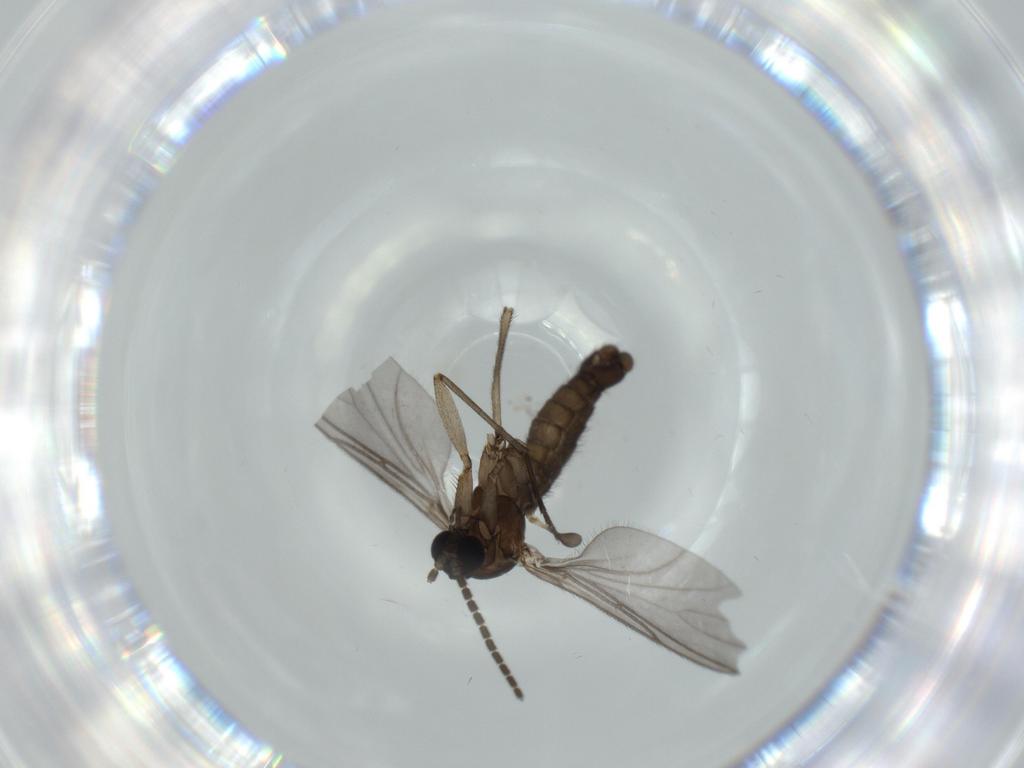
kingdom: Animalia
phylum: Arthropoda
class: Insecta
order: Diptera
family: Sciaridae
